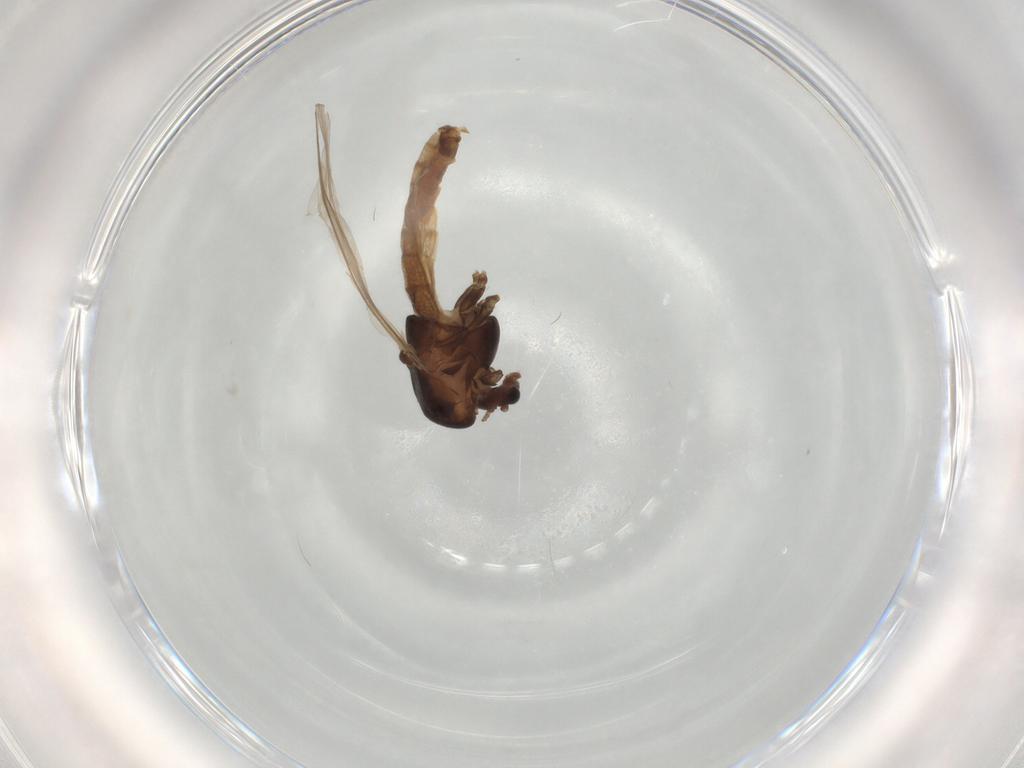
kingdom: Animalia
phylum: Arthropoda
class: Insecta
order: Diptera
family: Chironomidae
